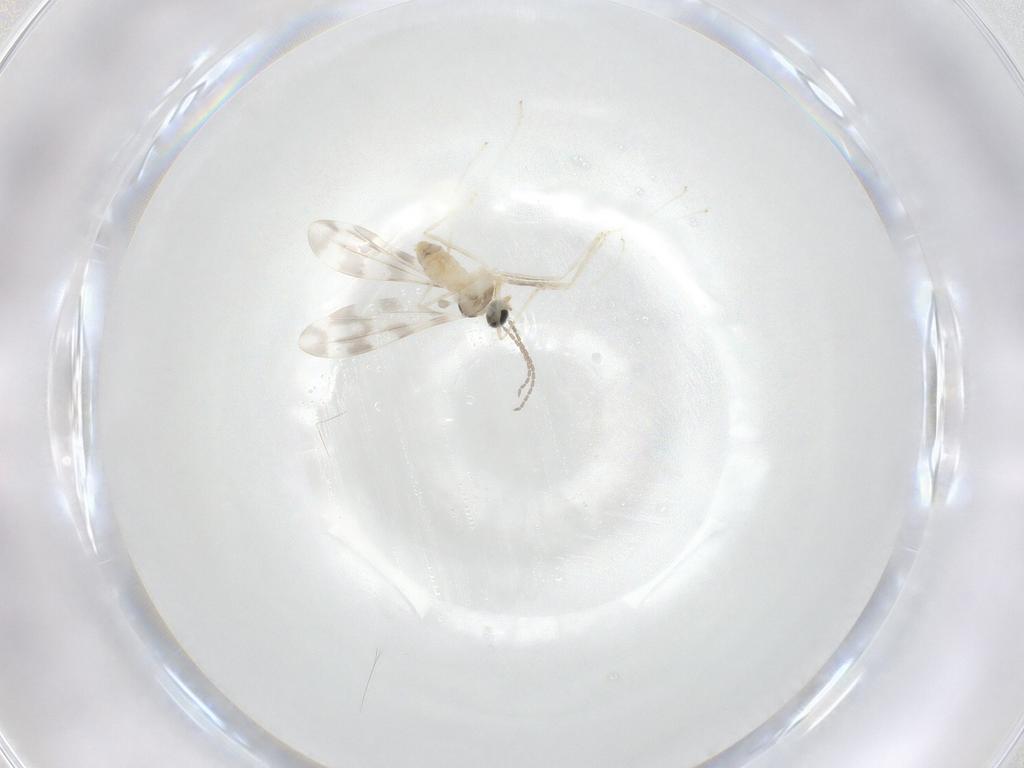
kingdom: Animalia
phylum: Arthropoda
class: Insecta
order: Diptera
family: Cecidomyiidae
